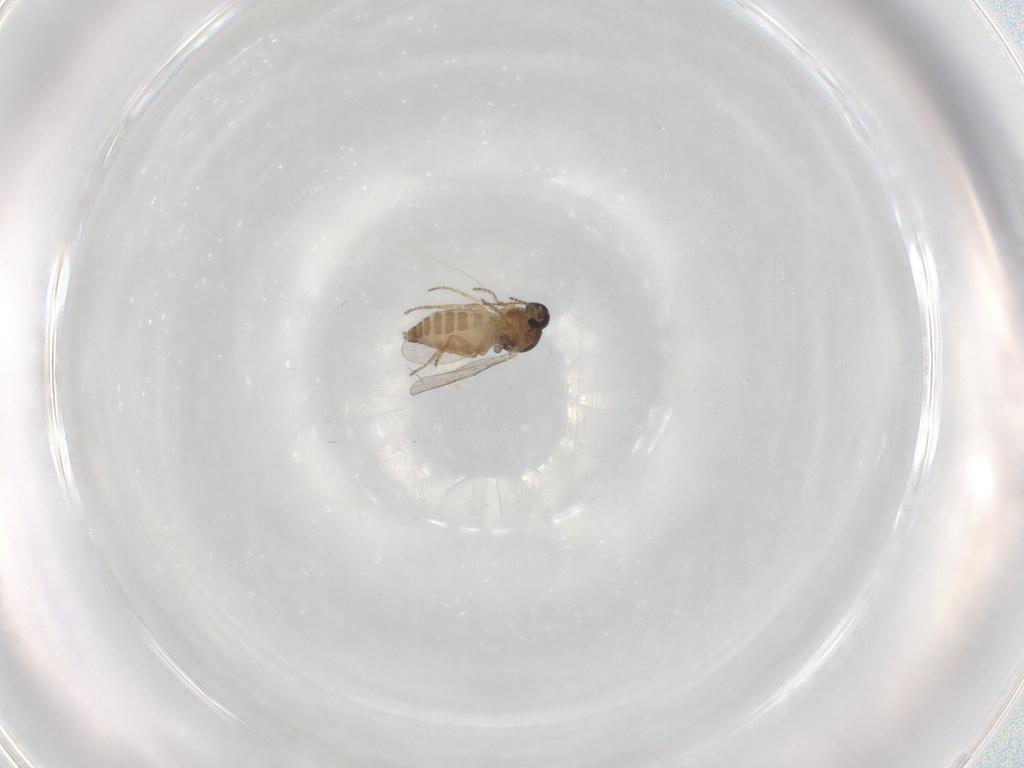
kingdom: Animalia
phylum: Arthropoda
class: Insecta
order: Diptera
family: Ceratopogonidae
